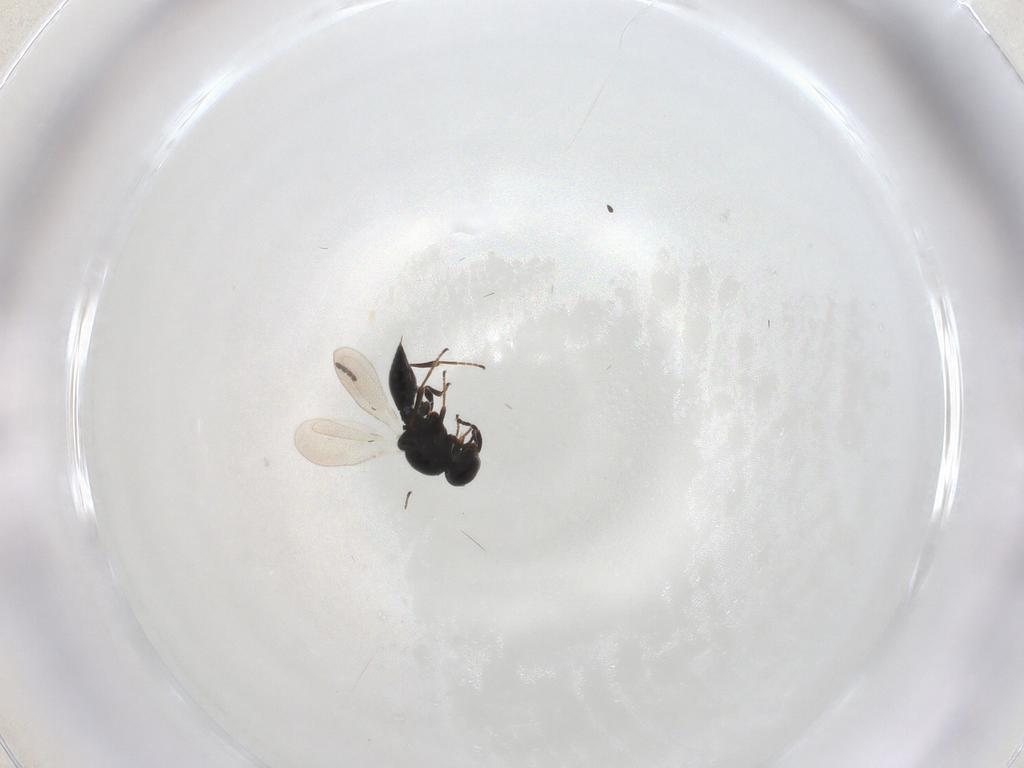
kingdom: Animalia
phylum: Arthropoda
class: Insecta
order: Hymenoptera
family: Platygastridae
